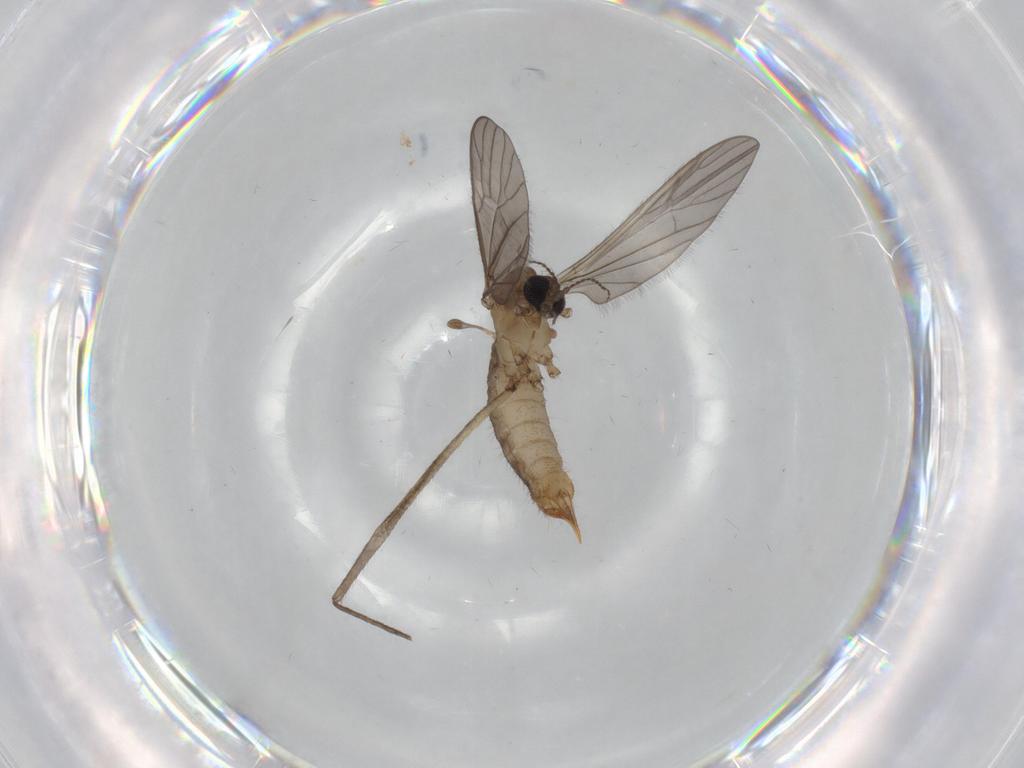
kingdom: Animalia
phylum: Arthropoda
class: Insecta
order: Diptera
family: Limoniidae
